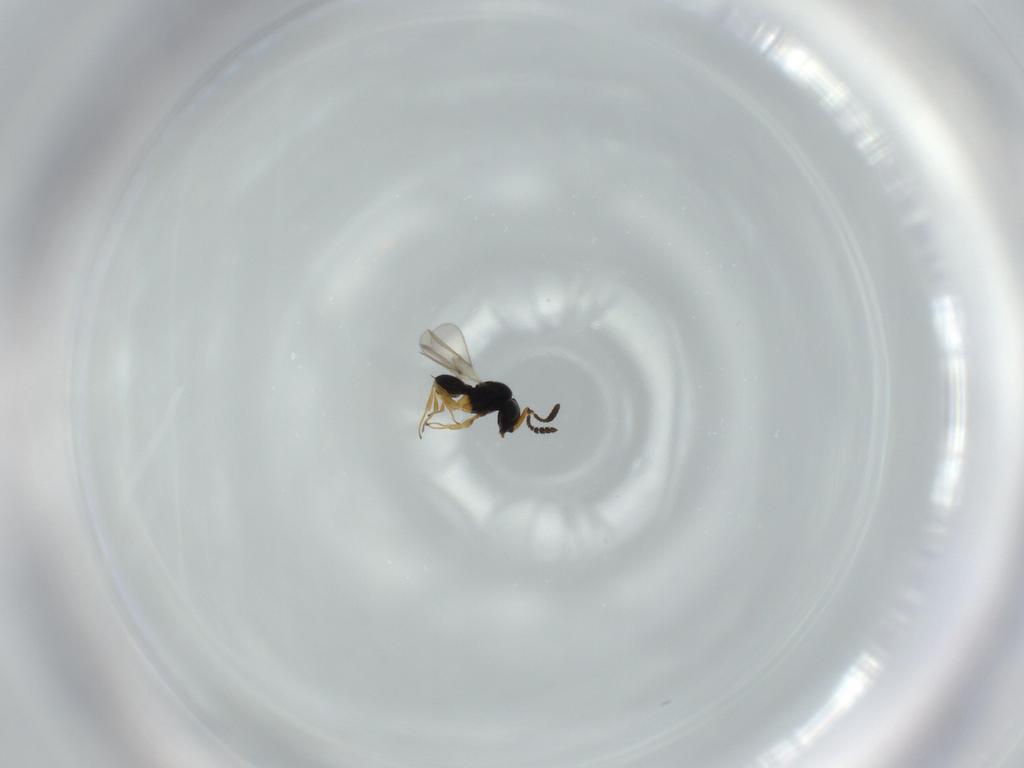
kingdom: Animalia
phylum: Arthropoda
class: Insecta
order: Hymenoptera
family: Scelionidae
